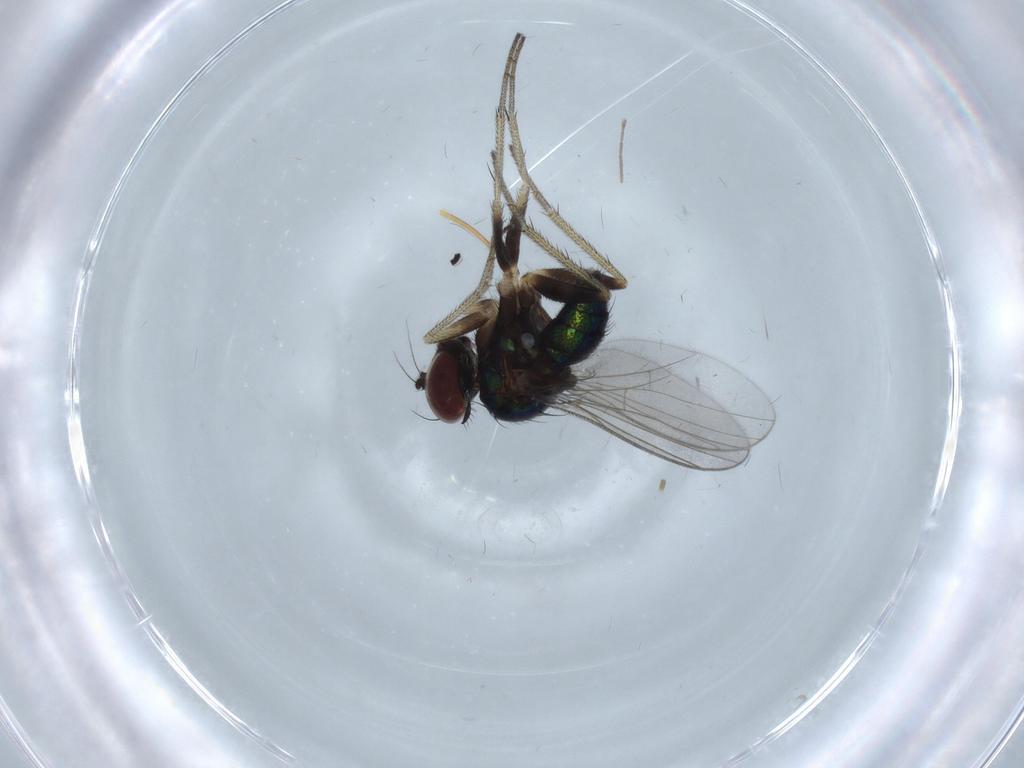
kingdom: Animalia
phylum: Arthropoda
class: Insecta
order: Diptera
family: Dolichopodidae
